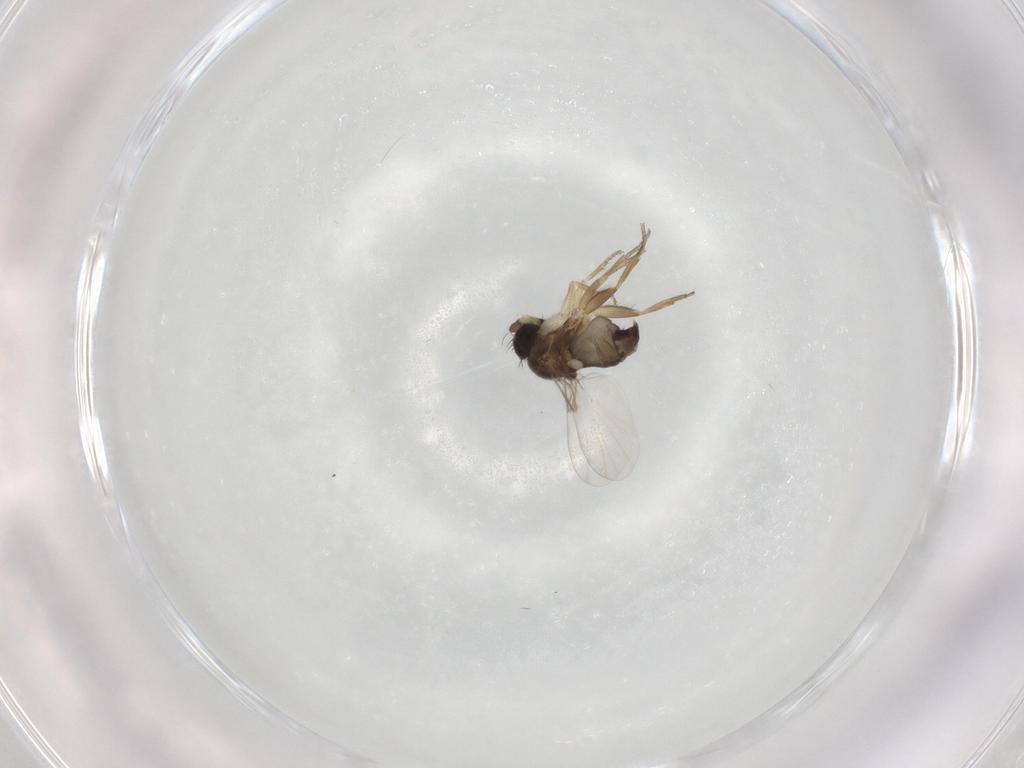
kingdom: Animalia
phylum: Arthropoda
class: Insecta
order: Diptera
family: Phoridae
